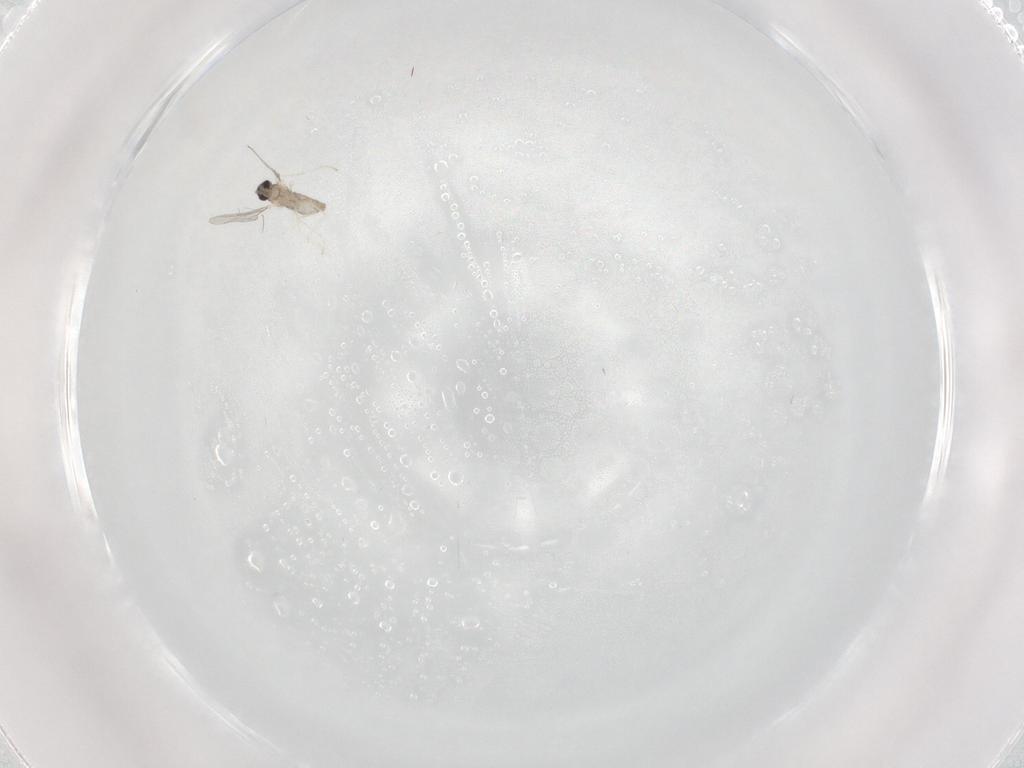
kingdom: Animalia
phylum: Arthropoda
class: Insecta
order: Diptera
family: Cecidomyiidae
